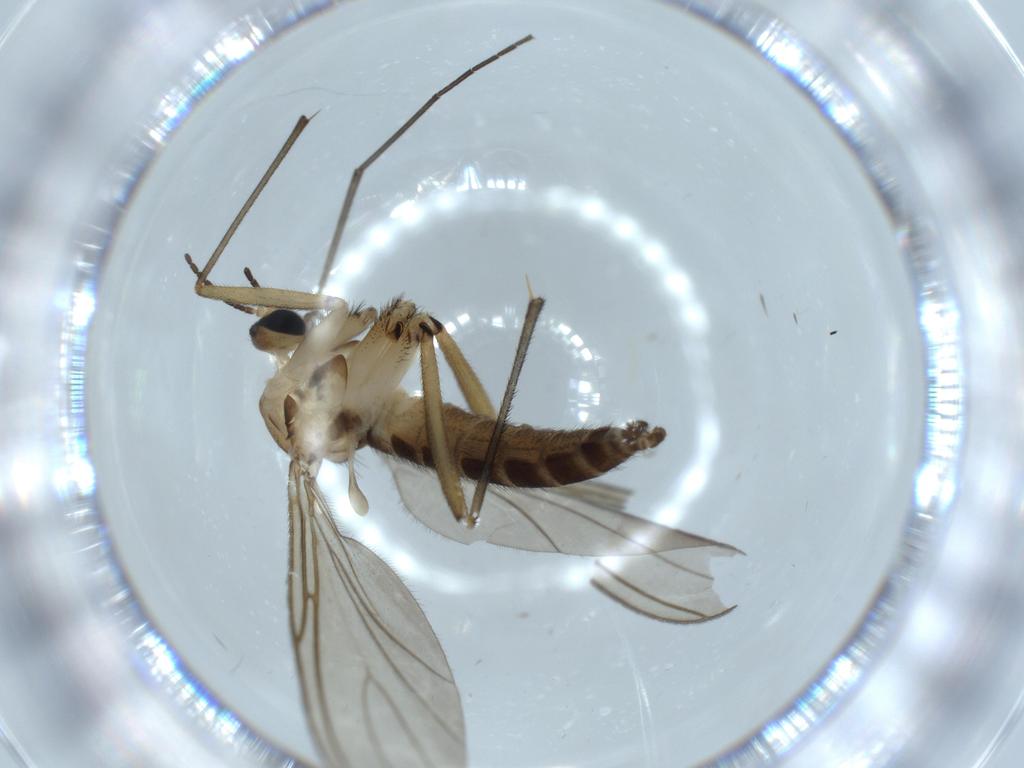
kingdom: Animalia
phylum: Arthropoda
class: Insecta
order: Diptera
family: Sciaridae
